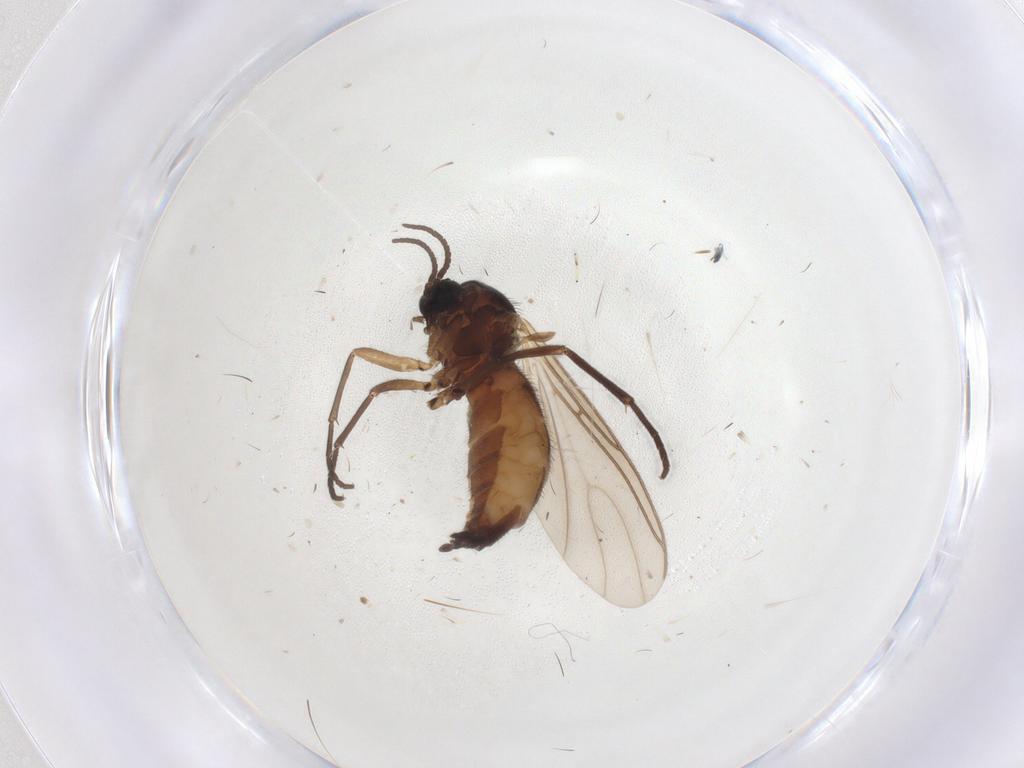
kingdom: Animalia
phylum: Arthropoda
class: Insecta
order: Diptera
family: Sciaridae
